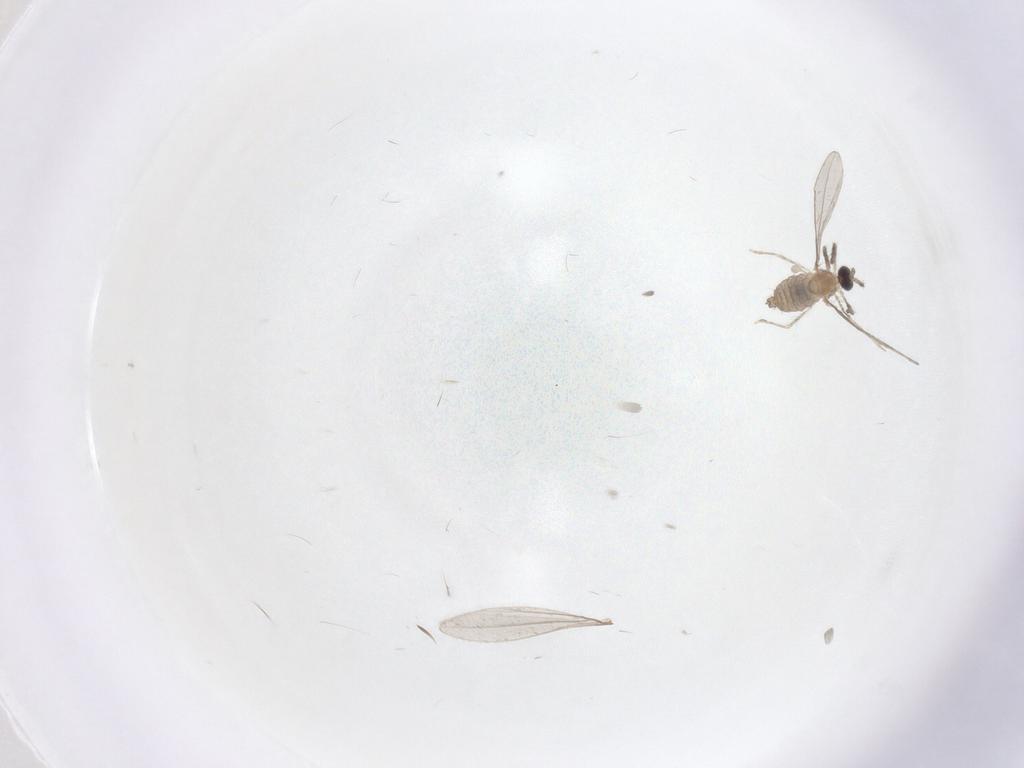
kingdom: Animalia
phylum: Arthropoda
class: Insecta
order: Diptera
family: Cecidomyiidae
